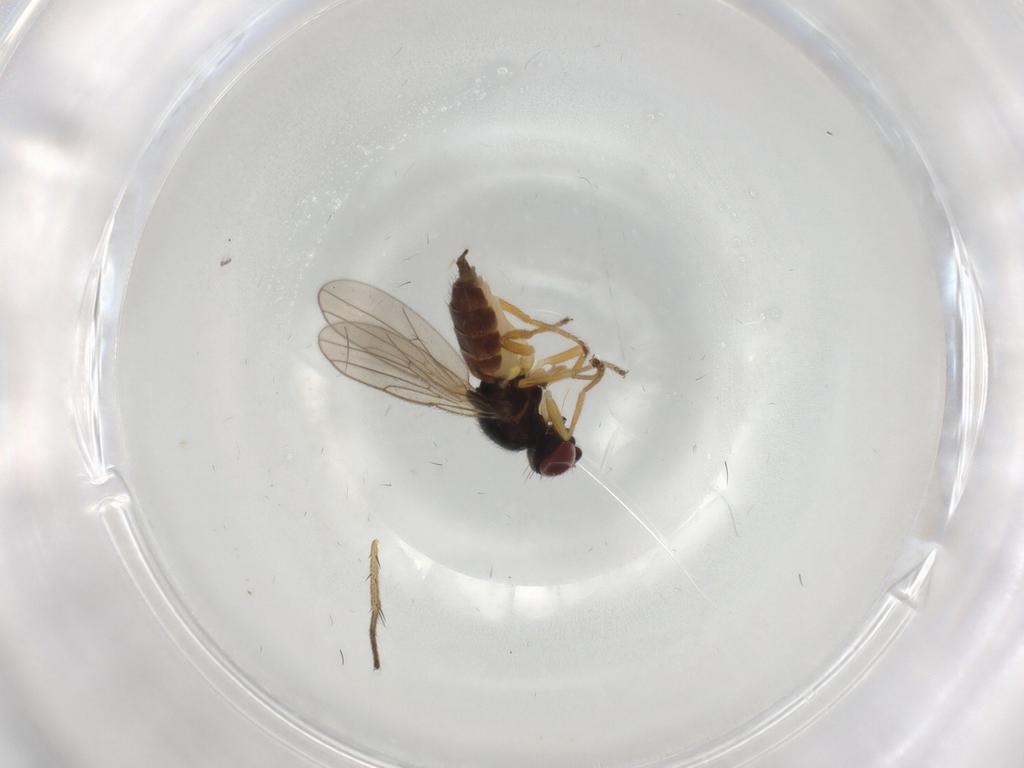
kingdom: Animalia
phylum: Arthropoda
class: Insecta
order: Diptera
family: Chloropidae
